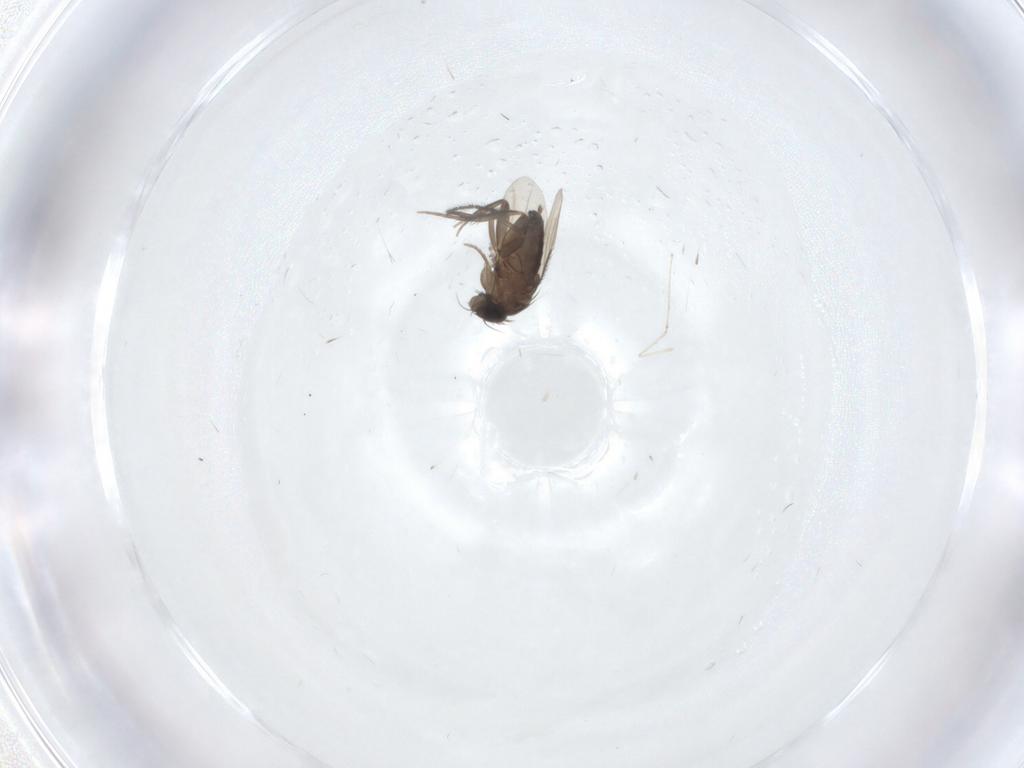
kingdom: Animalia
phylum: Arthropoda
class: Insecta
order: Diptera
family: Phoridae
